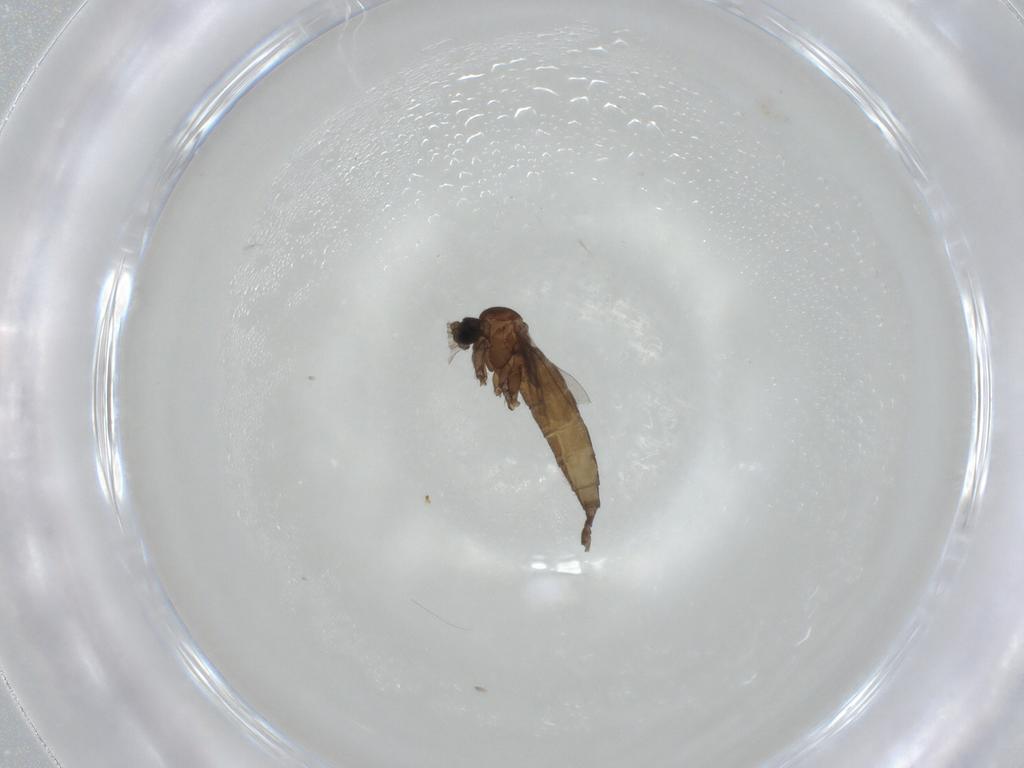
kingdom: Animalia
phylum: Arthropoda
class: Insecta
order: Diptera
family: Sciaridae
